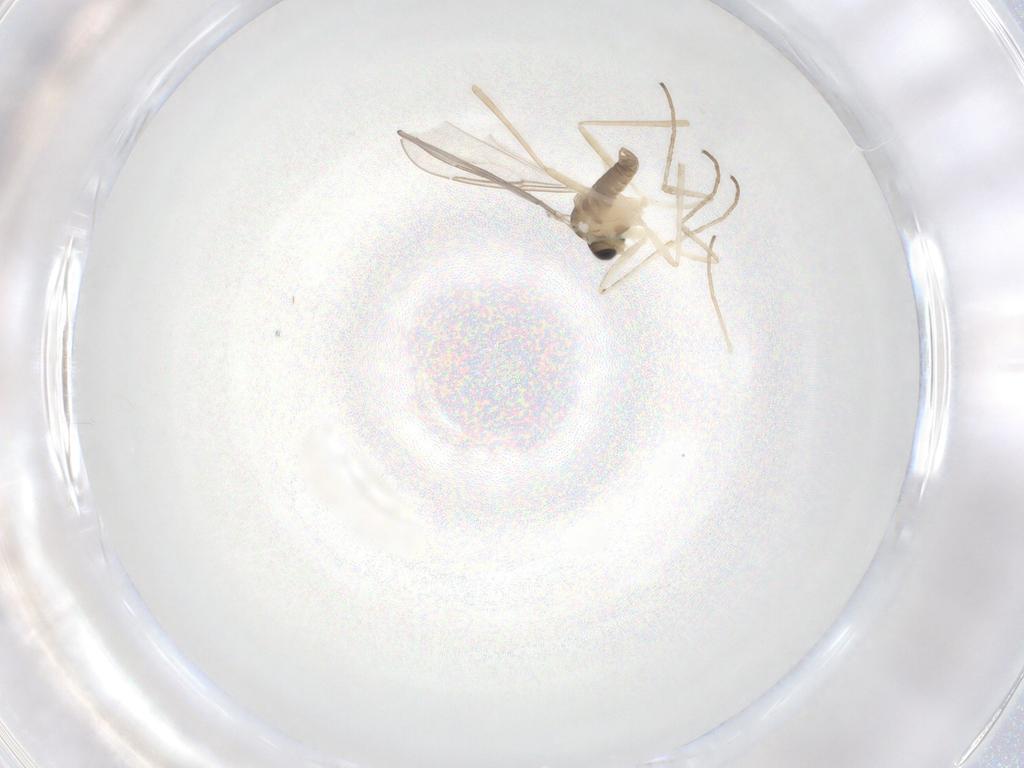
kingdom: Animalia
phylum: Arthropoda
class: Insecta
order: Diptera
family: Cecidomyiidae
